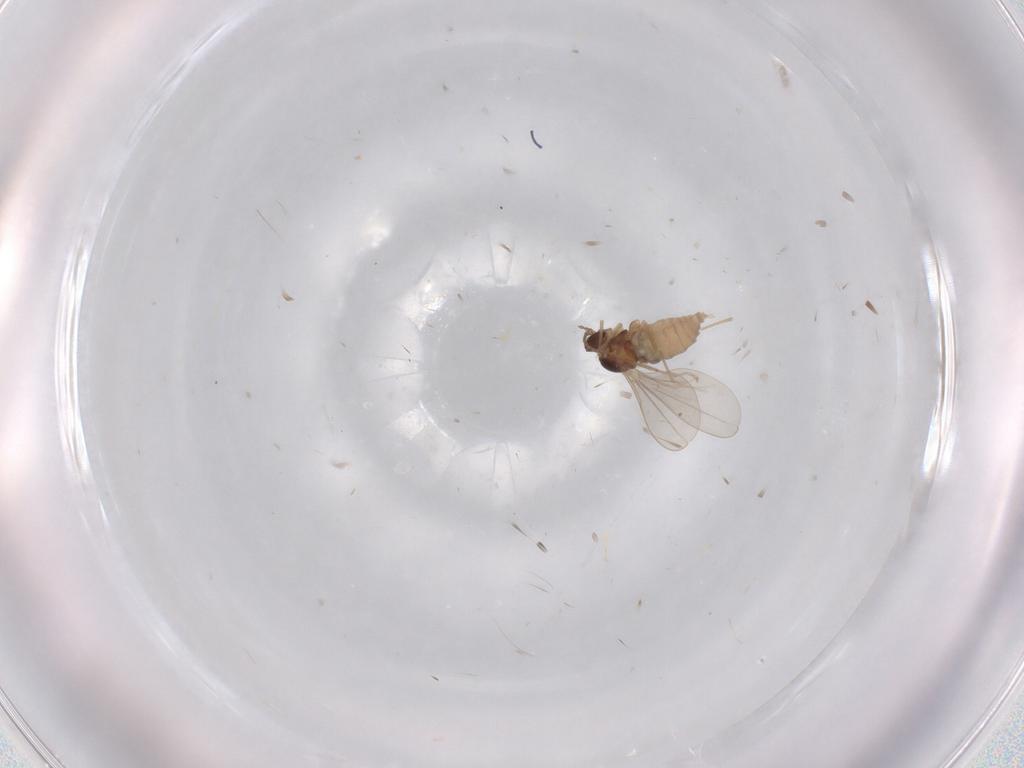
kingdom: Animalia
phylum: Arthropoda
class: Insecta
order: Diptera
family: Cecidomyiidae
